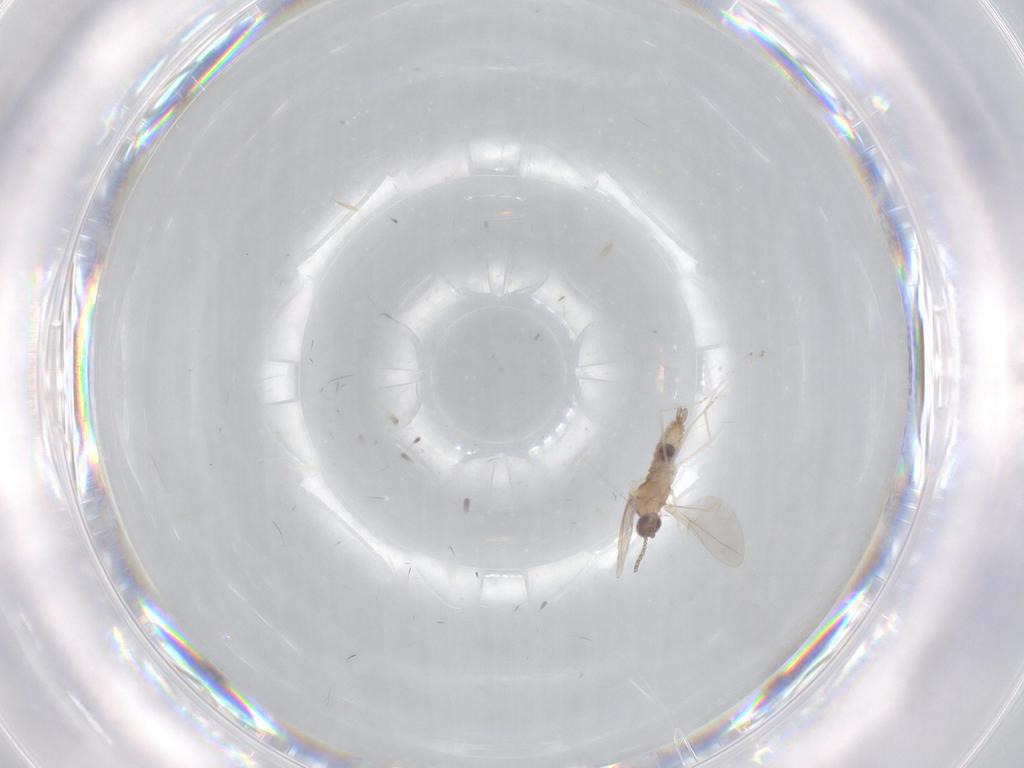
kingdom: Animalia
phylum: Arthropoda
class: Insecta
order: Diptera
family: Cecidomyiidae
